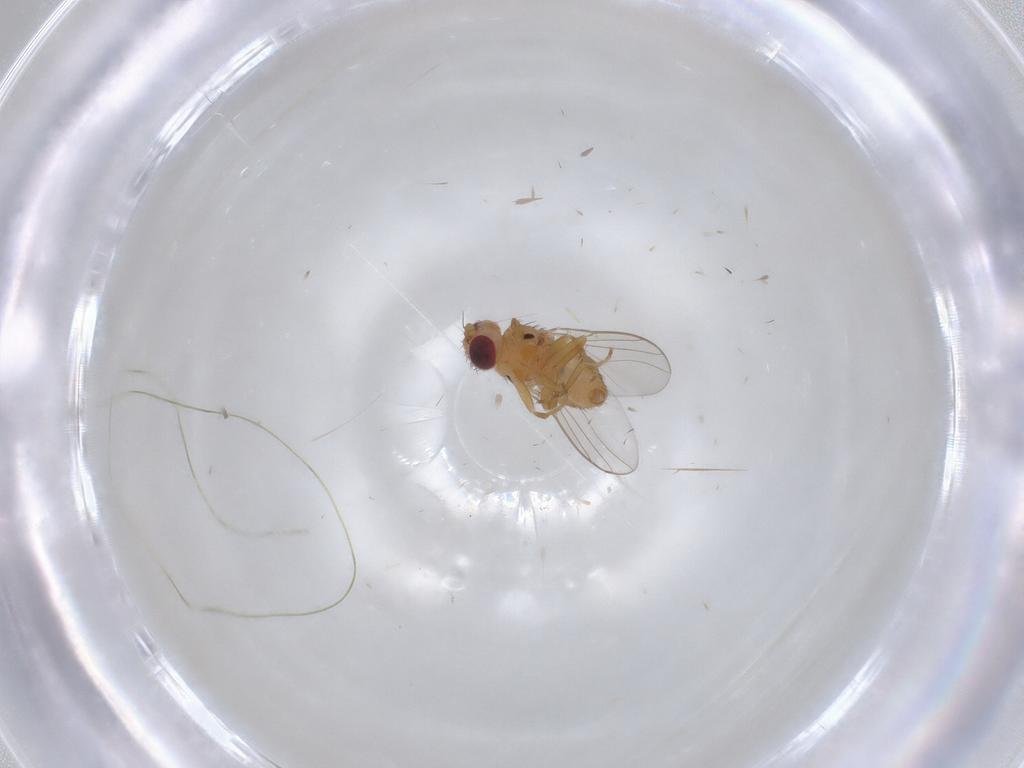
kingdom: Animalia
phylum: Arthropoda
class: Insecta
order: Diptera
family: Chloropidae
